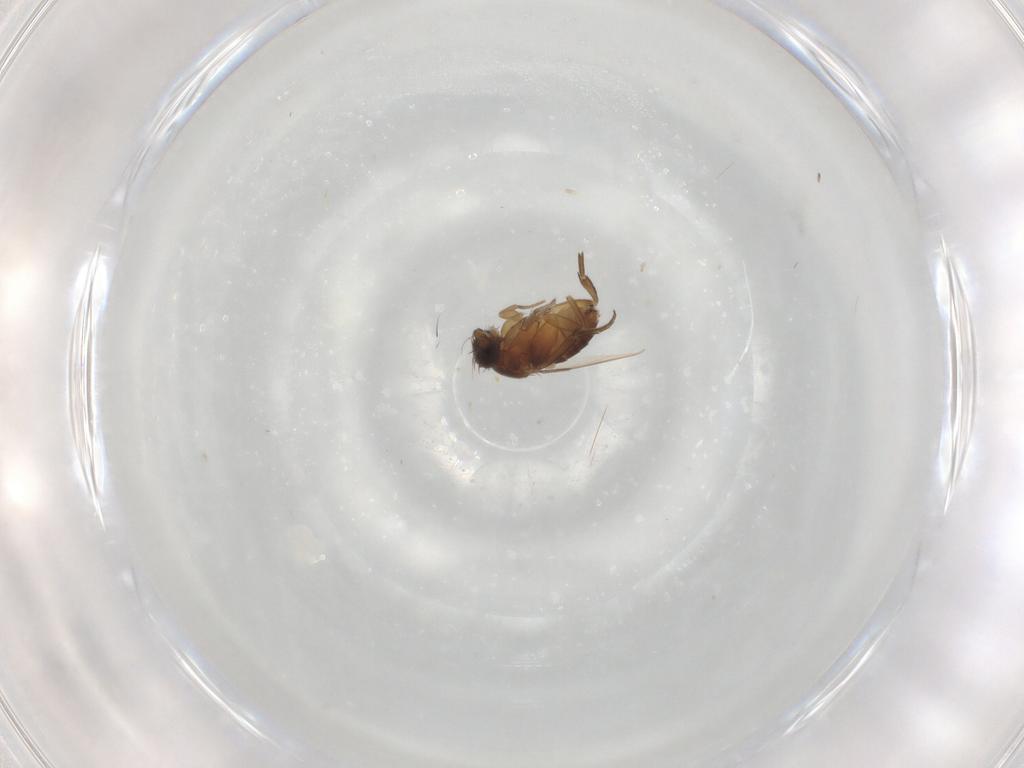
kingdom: Animalia
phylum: Arthropoda
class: Insecta
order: Diptera
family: Phoridae
